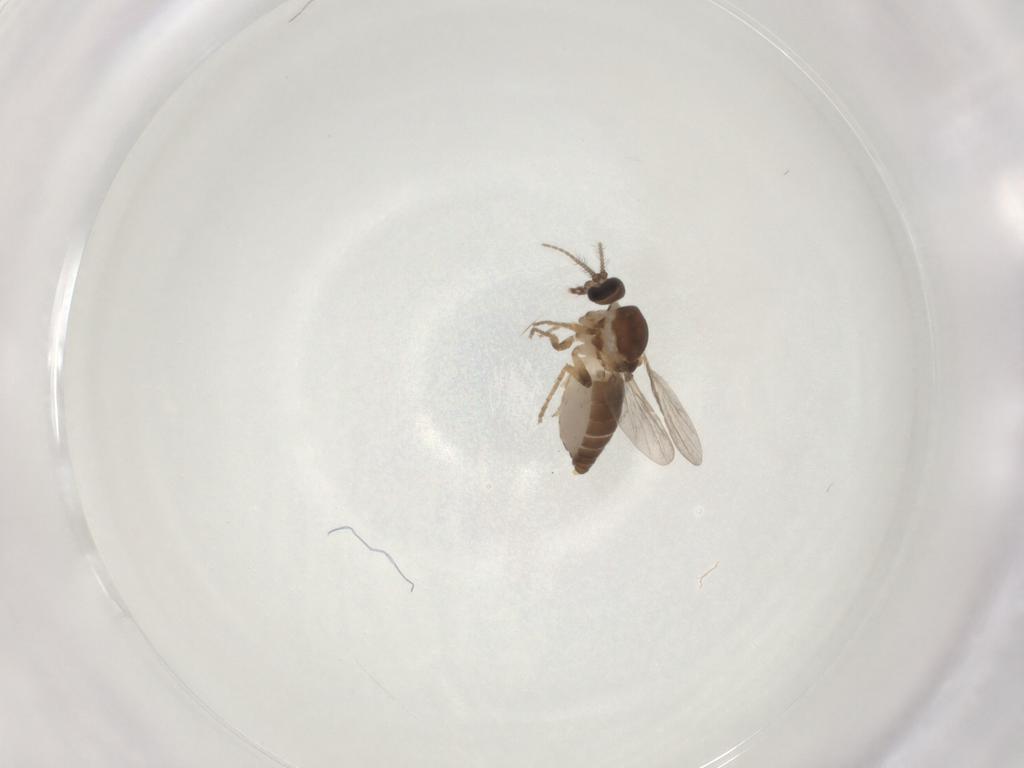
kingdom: Animalia
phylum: Arthropoda
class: Insecta
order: Diptera
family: Ceratopogonidae
